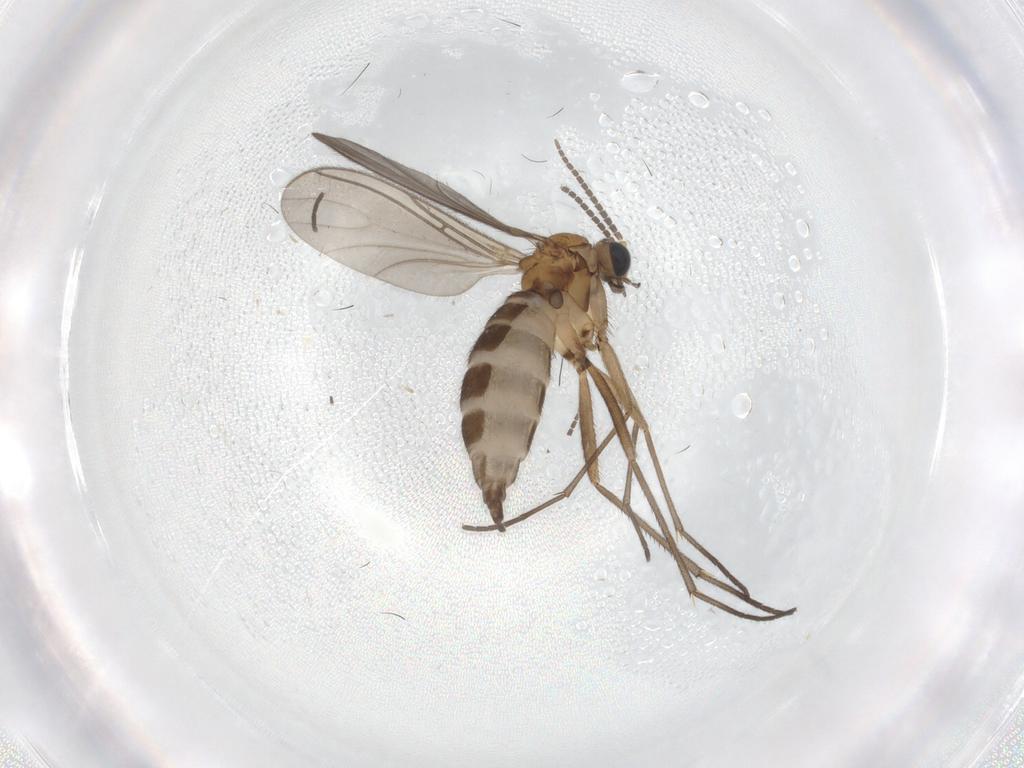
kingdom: Animalia
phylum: Arthropoda
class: Insecta
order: Diptera
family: Sciaridae
